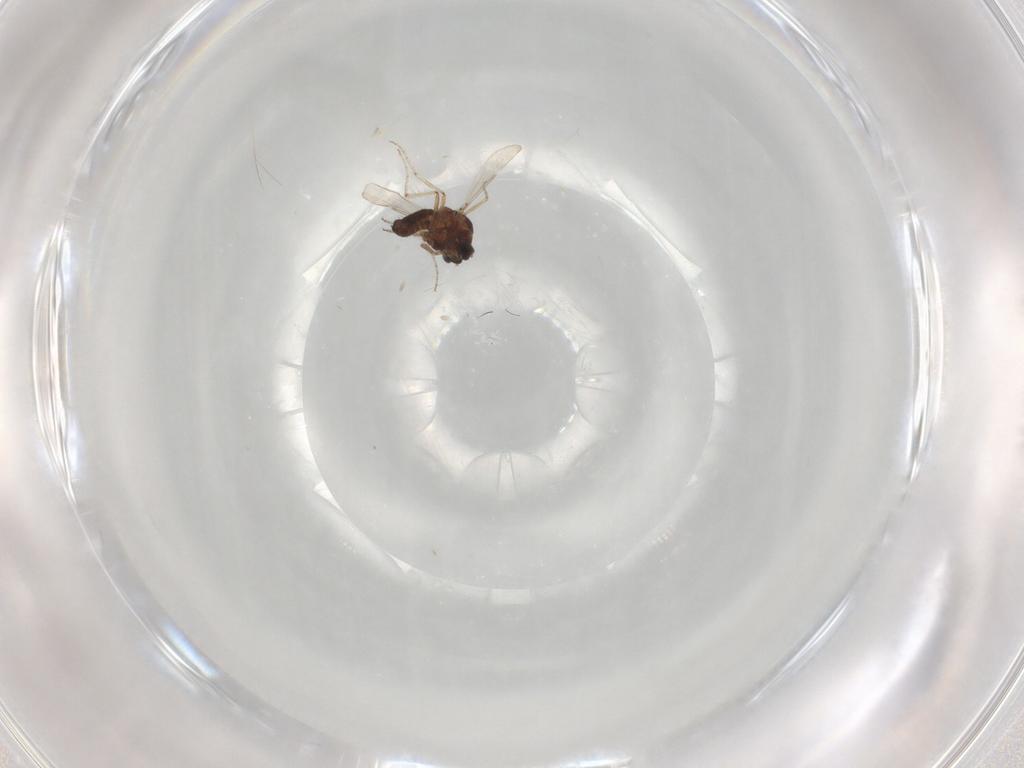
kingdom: Animalia
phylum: Arthropoda
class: Insecta
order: Diptera
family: Ceratopogonidae
